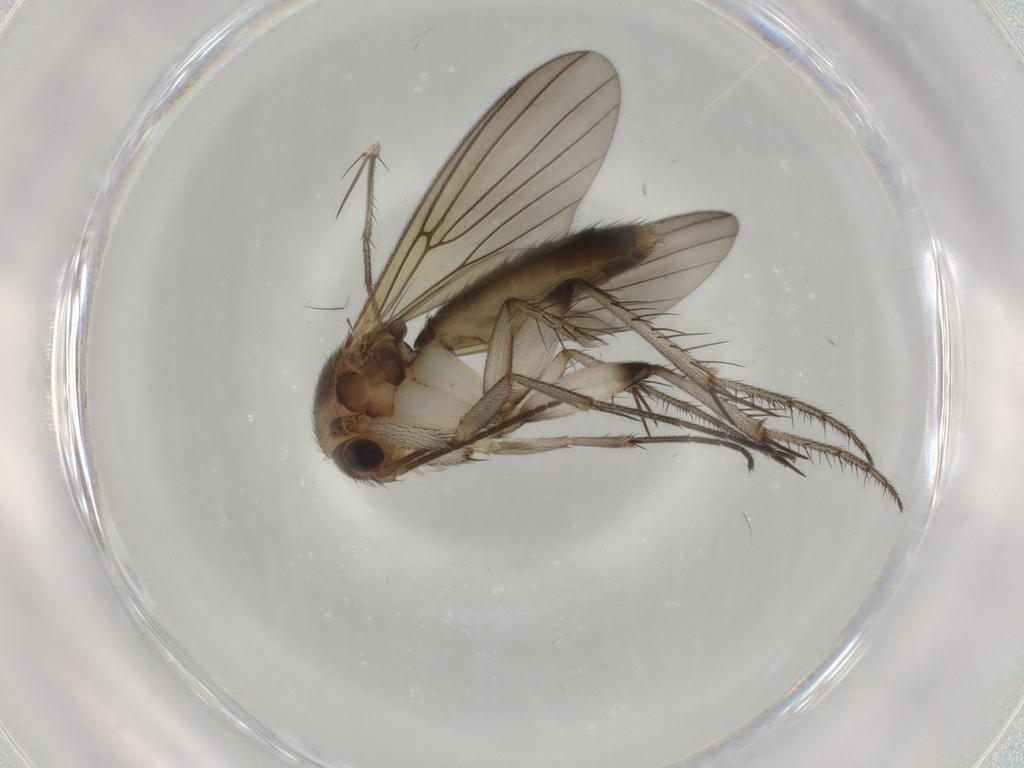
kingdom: Animalia
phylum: Arthropoda
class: Insecta
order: Diptera
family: Mycetophilidae
